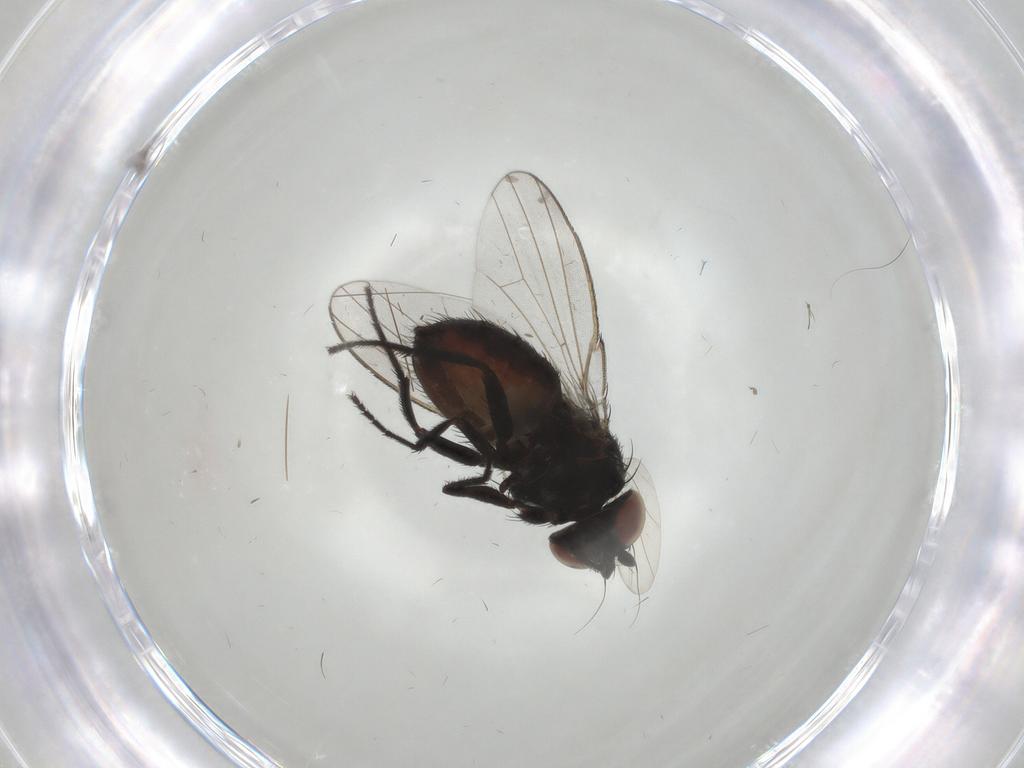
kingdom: Animalia
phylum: Arthropoda
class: Insecta
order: Diptera
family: Milichiidae
